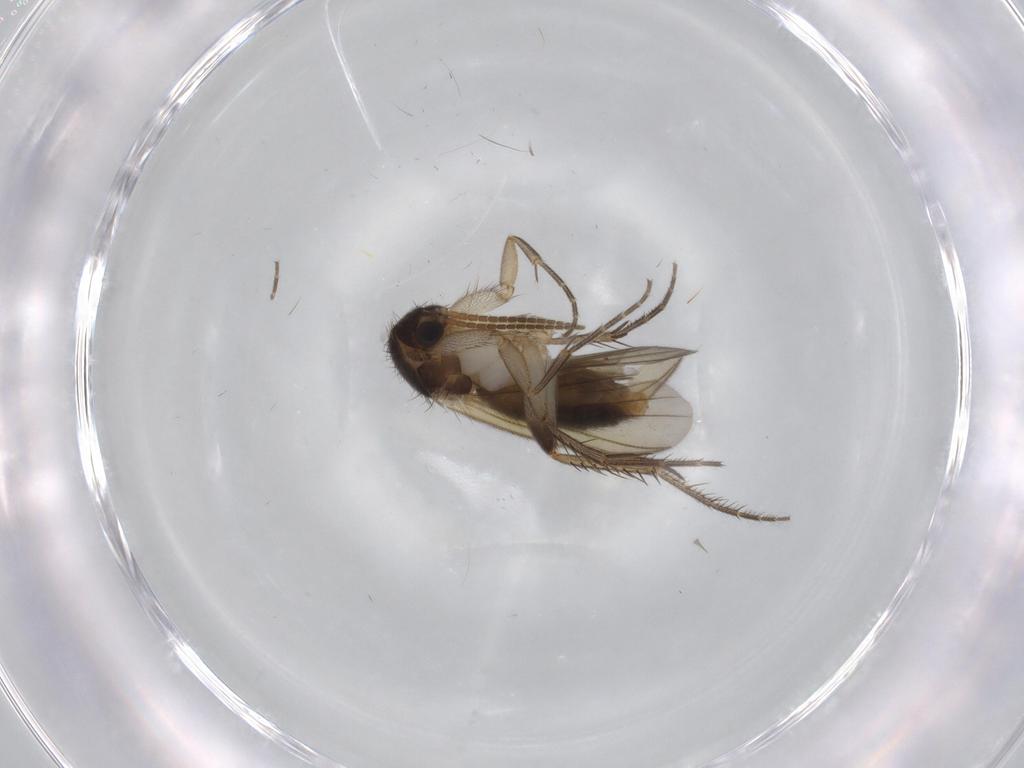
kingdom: Animalia
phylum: Arthropoda
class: Insecta
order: Diptera
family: Mycetophilidae
